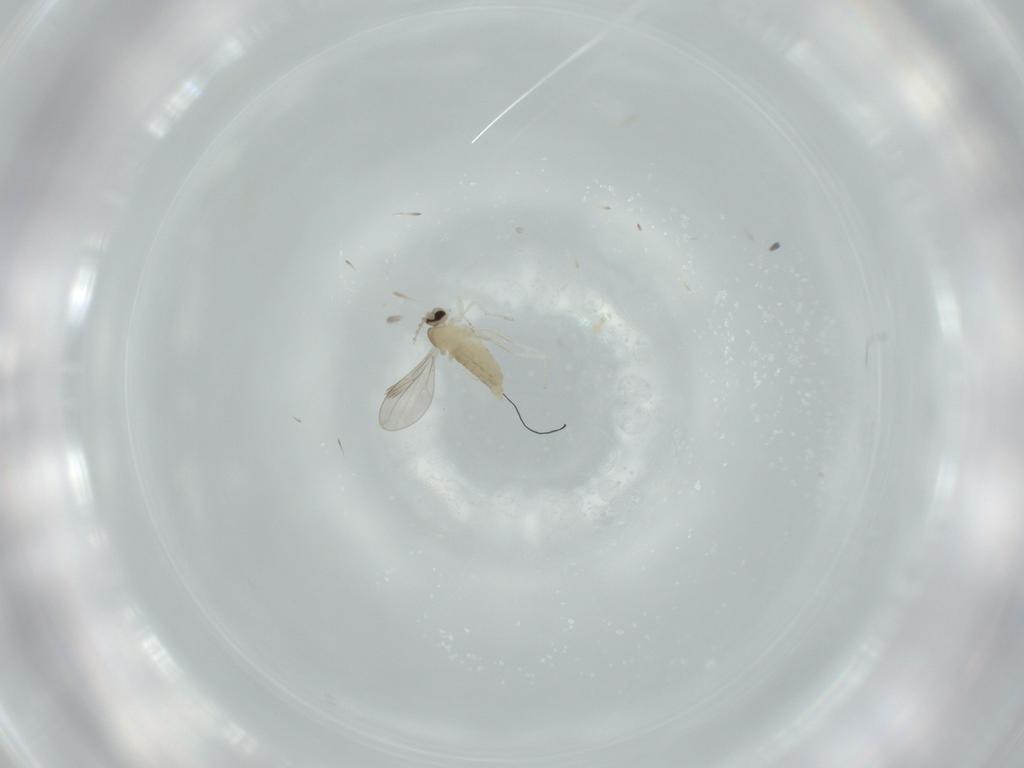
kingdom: Animalia
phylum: Arthropoda
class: Insecta
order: Diptera
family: Cecidomyiidae
